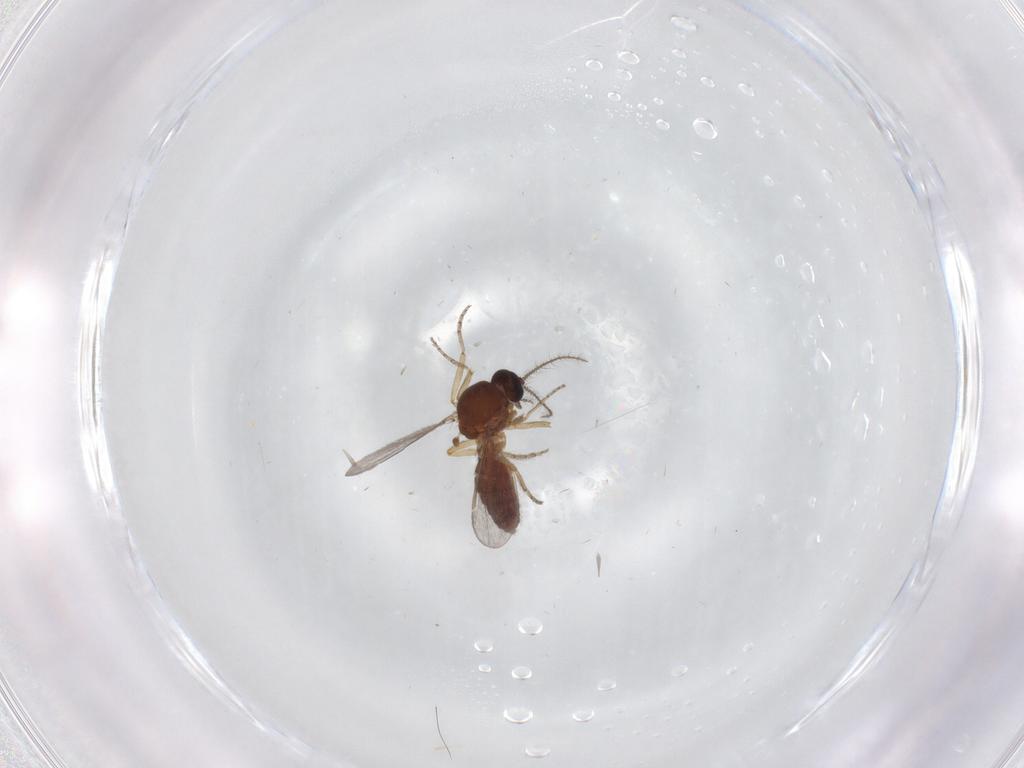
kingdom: Animalia
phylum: Arthropoda
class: Insecta
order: Diptera
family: Ceratopogonidae
